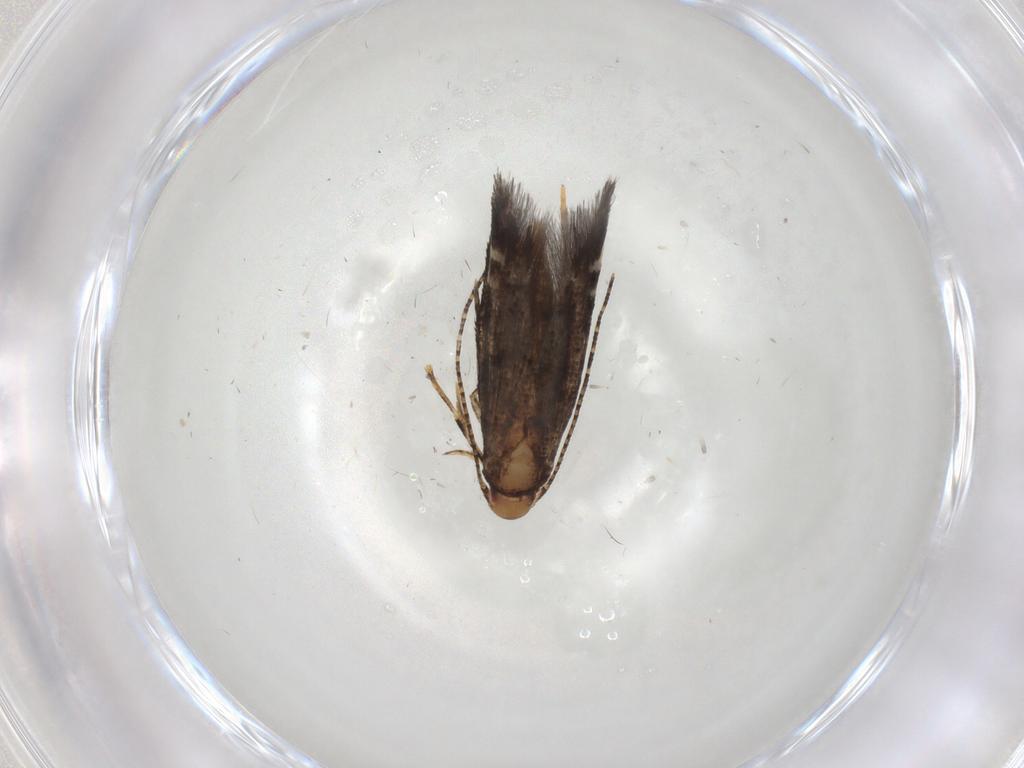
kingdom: Animalia
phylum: Arthropoda
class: Insecta
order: Lepidoptera
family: Momphidae
